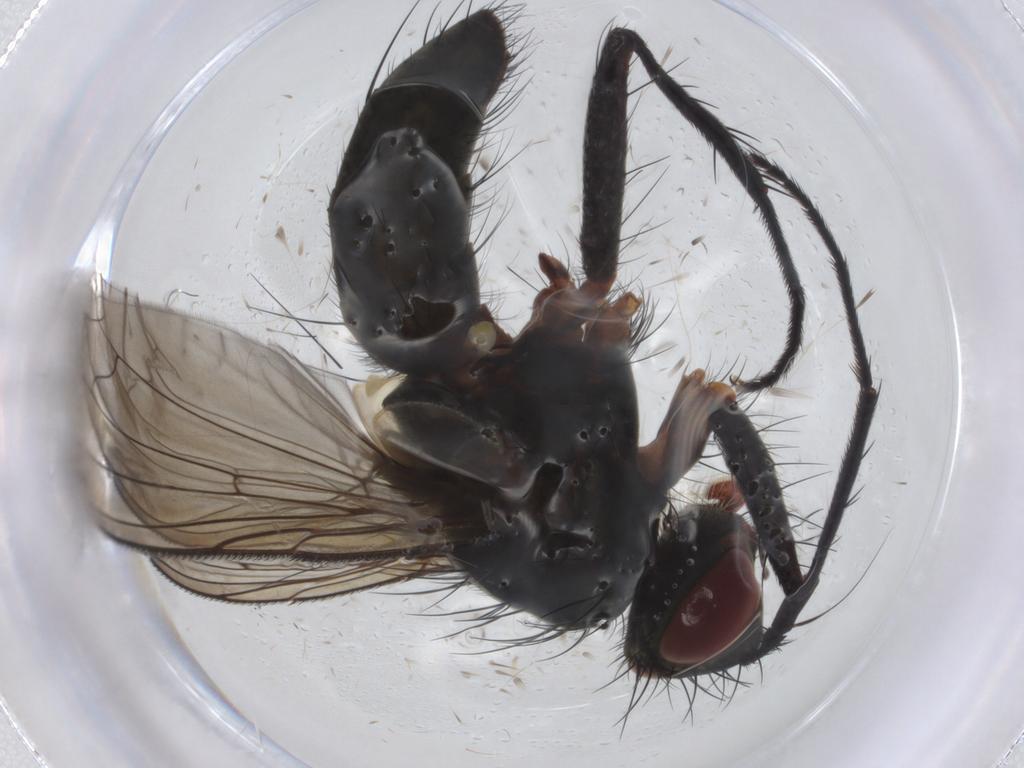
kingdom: Animalia
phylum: Arthropoda
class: Insecta
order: Diptera
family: Tachinidae
